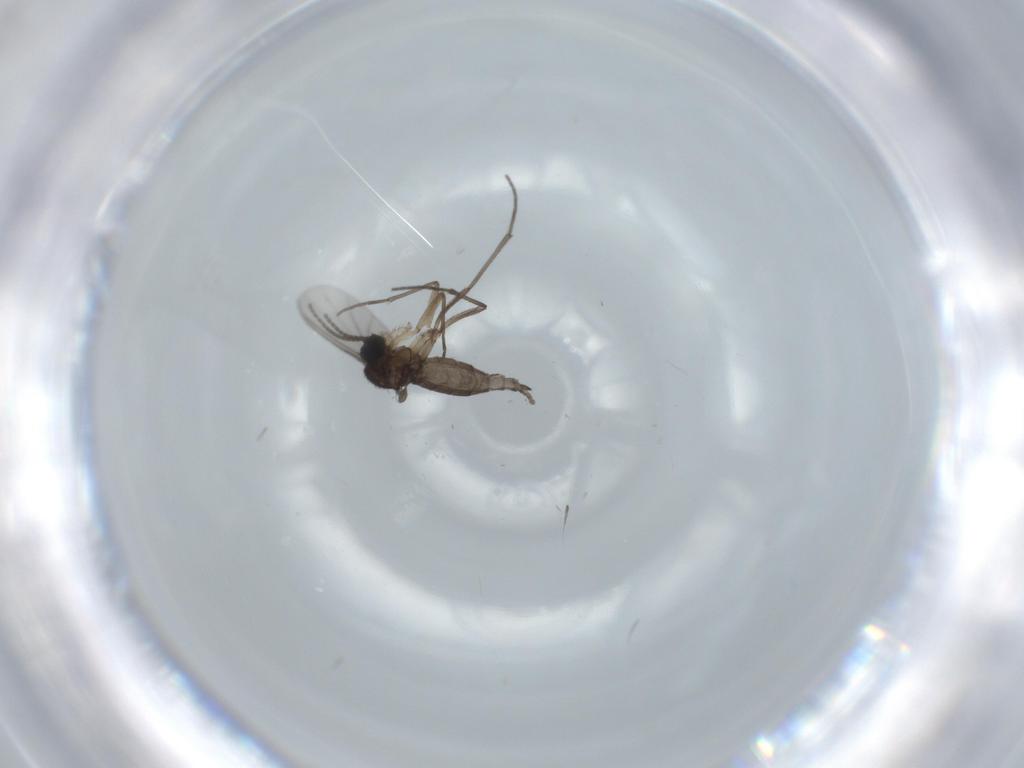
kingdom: Animalia
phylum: Arthropoda
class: Insecta
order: Diptera
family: Sciaridae
